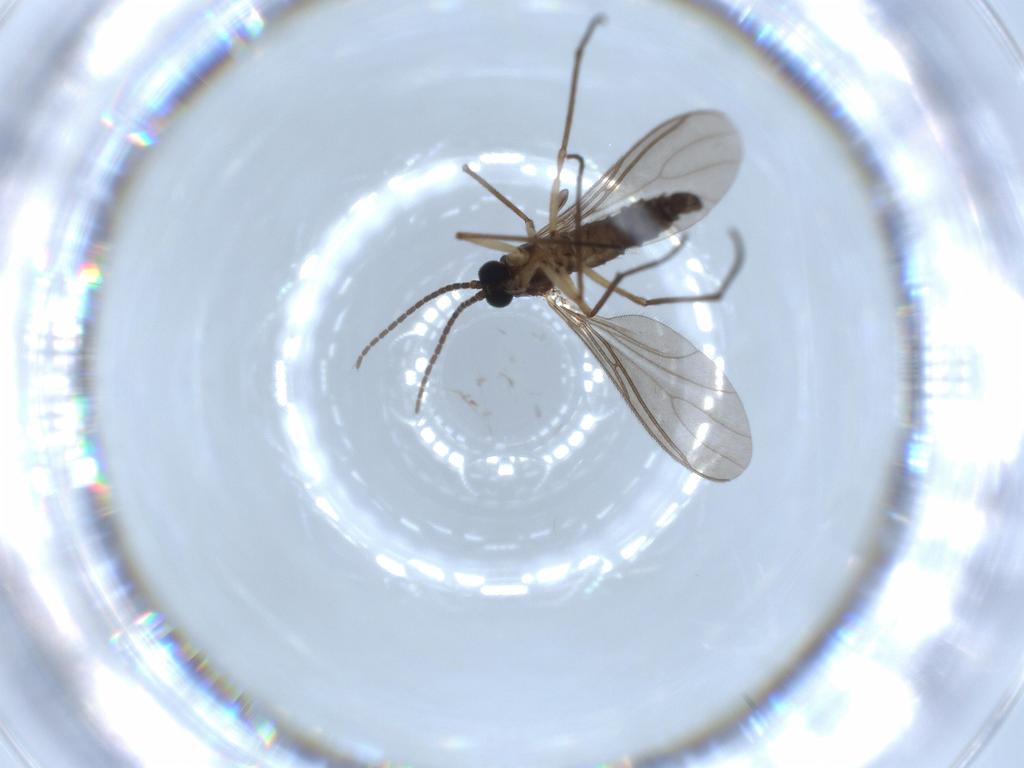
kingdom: Animalia
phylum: Arthropoda
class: Insecta
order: Diptera
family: Sciaridae
